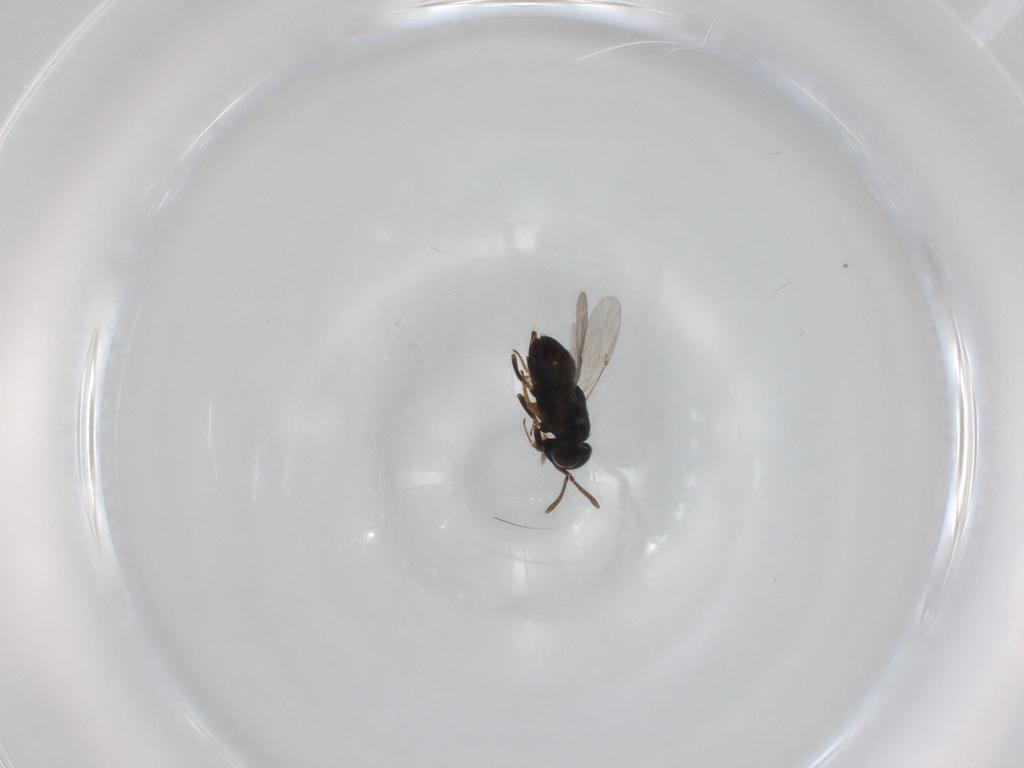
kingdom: Animalia
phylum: Arthropoda
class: Insecta
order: Hymenoptera
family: Encyrtidae
